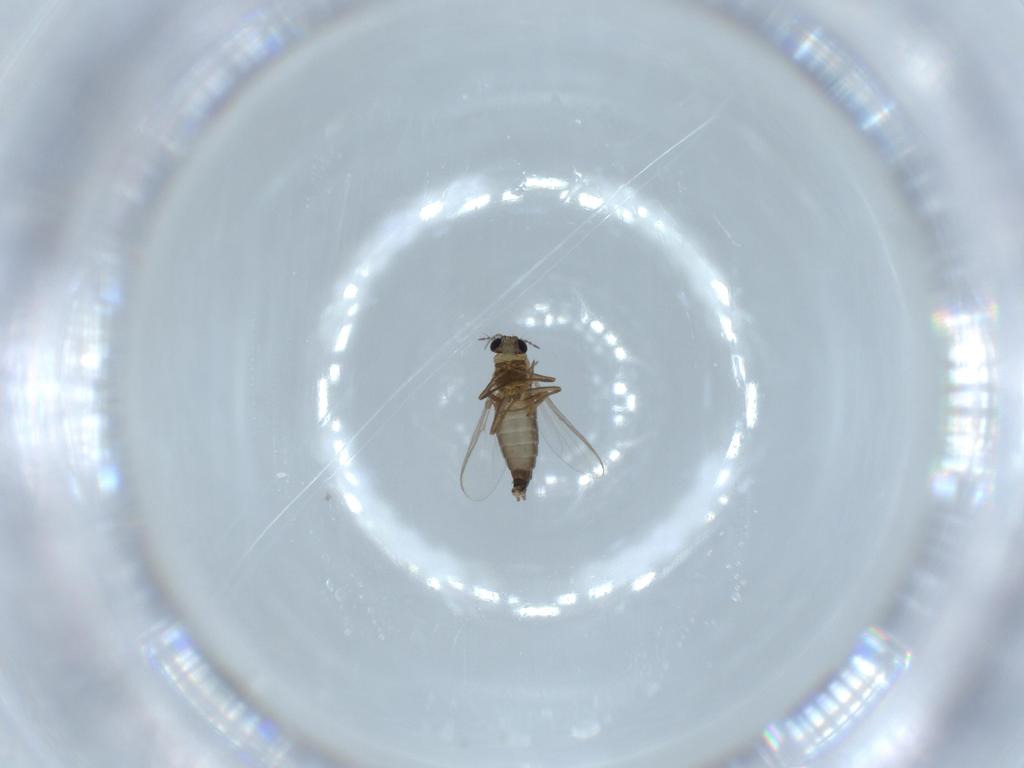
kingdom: Animalia
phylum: Arthropoda
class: Insecta
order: Diptera
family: Chironomidae
